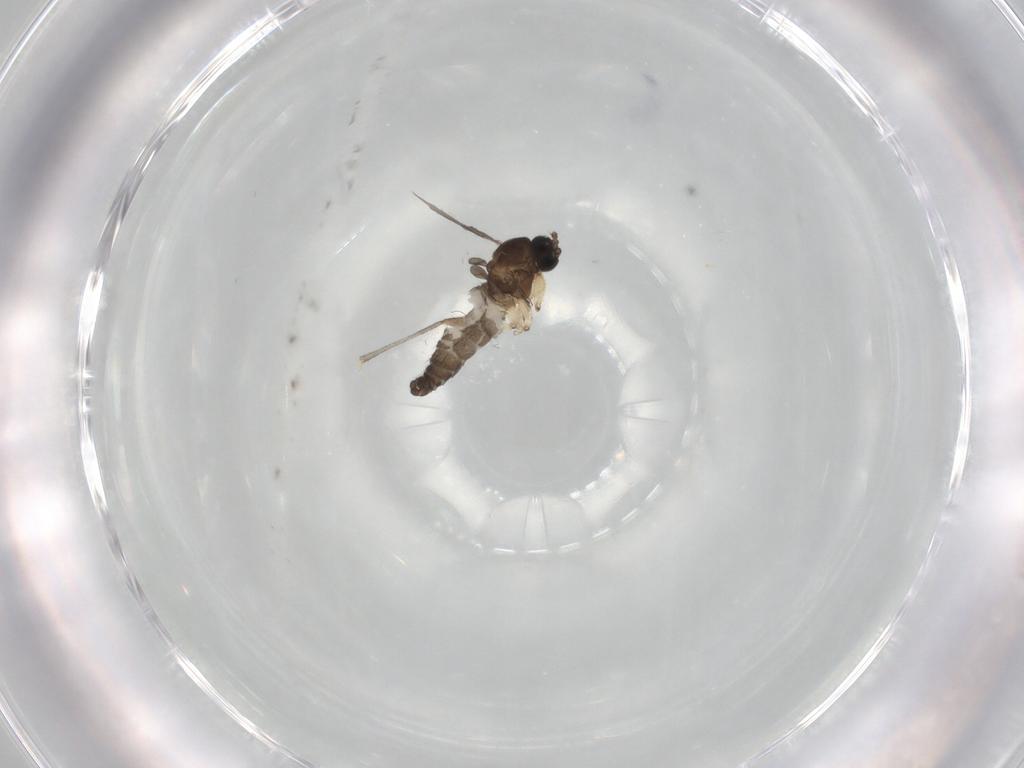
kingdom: Animalia
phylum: Arthropoda
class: Insecta
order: Diptera
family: Sciaridae
